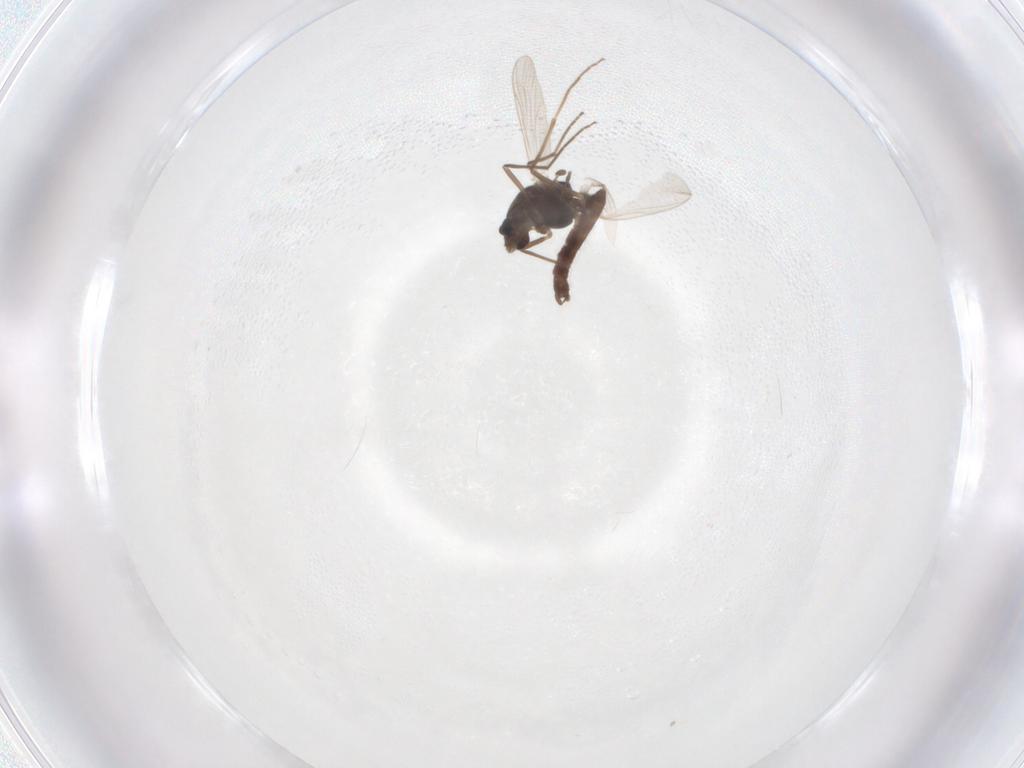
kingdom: Animalia
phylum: Arthropoda
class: Insecta
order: Diptera
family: Chironomidae
